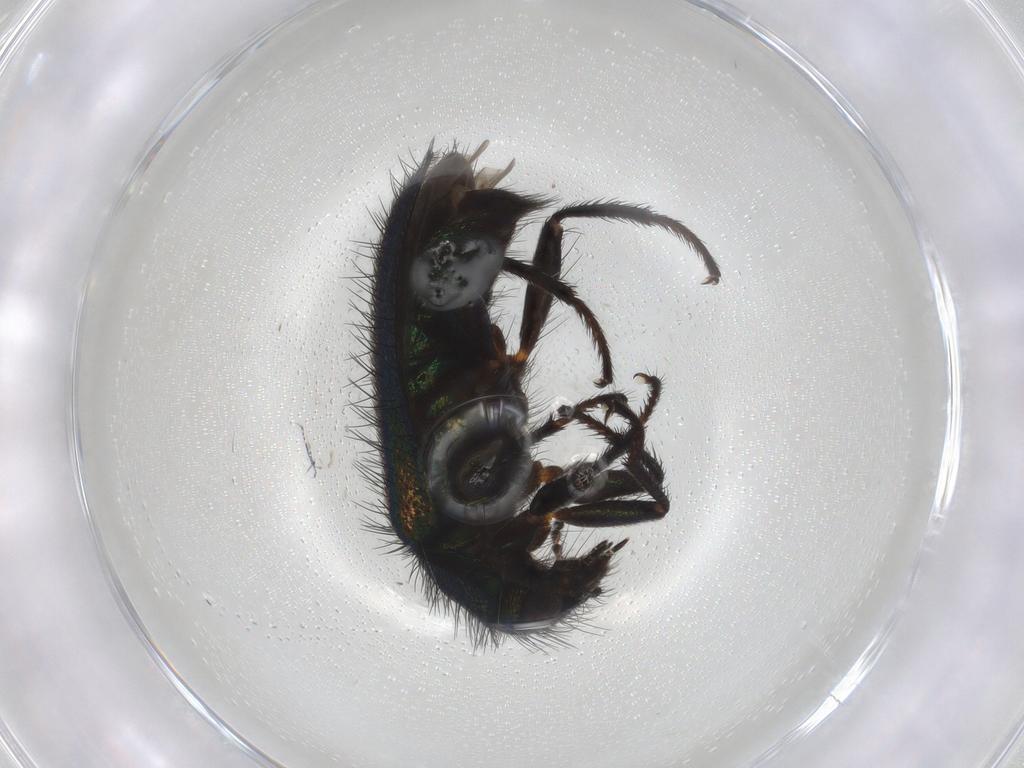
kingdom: Animalia
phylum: Arthropoda
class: Insecta
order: Coleoptera
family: Melyridae
